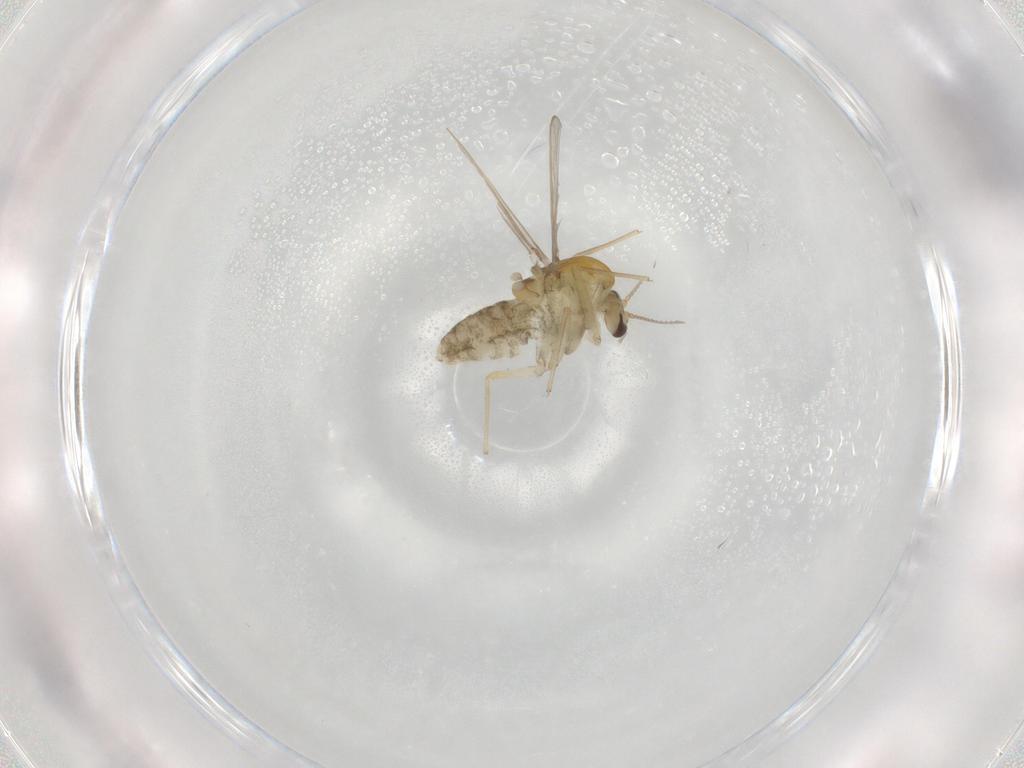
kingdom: Animalia
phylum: Arthropoda
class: Insecta
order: Diptera
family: Chironomidae
